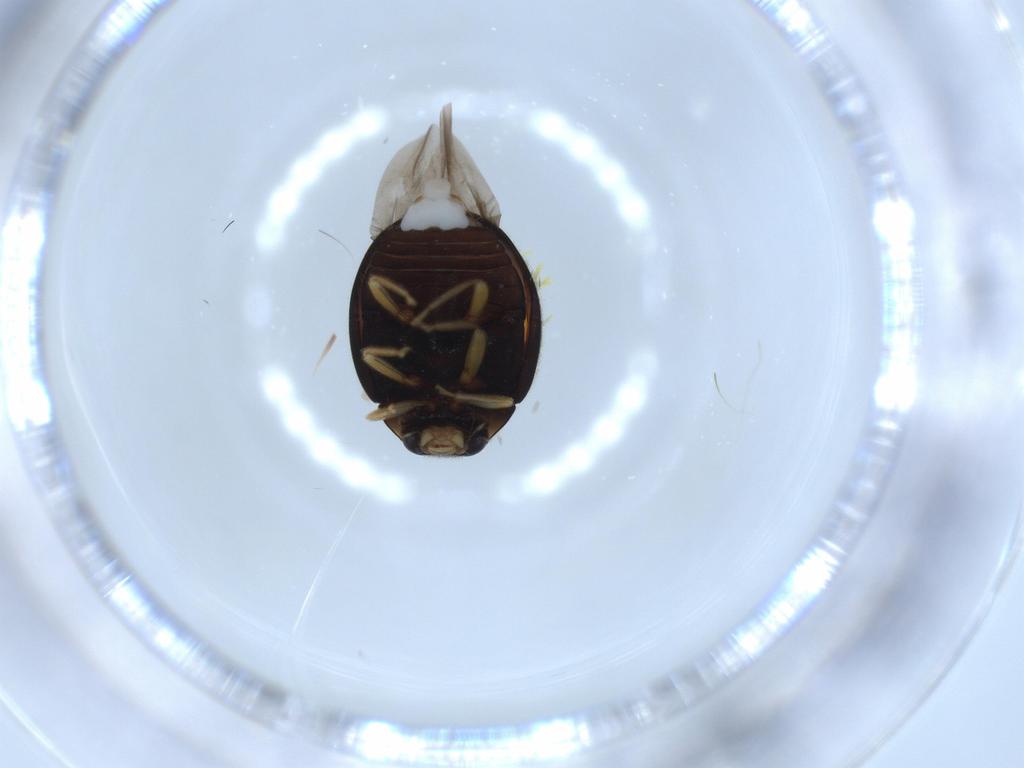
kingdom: Animalia
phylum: Arthropoda
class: Insecta
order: Coleoptera
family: Coccinellidae
